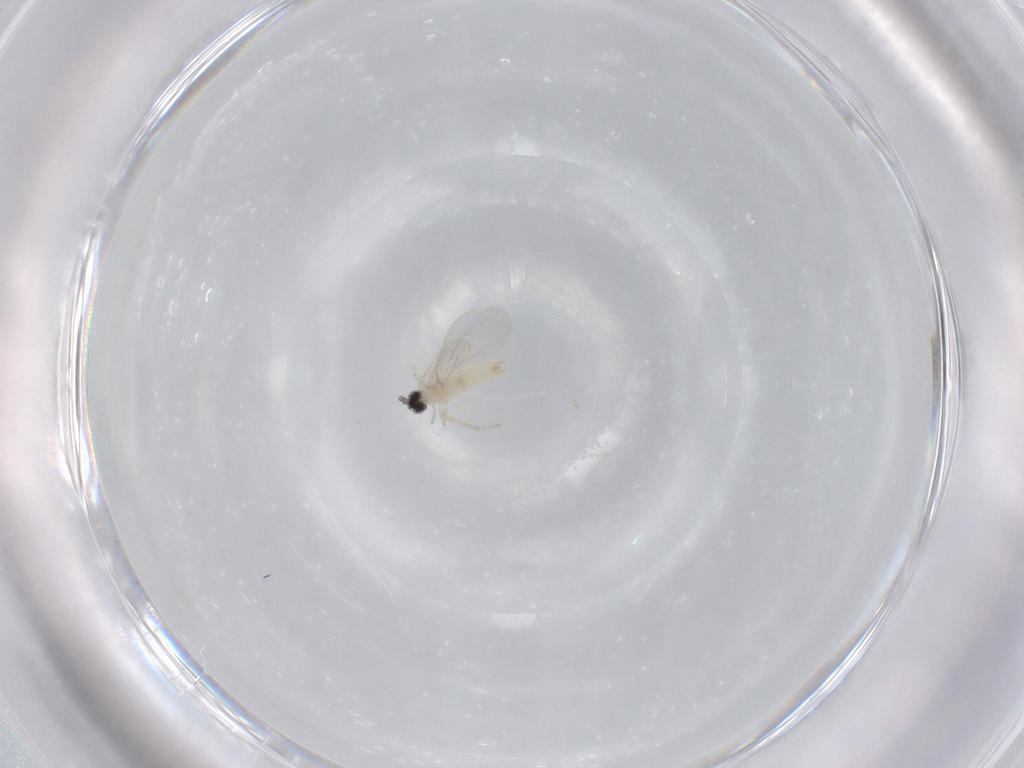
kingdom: Animalia
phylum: Arthropoda
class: Insecta
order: Diptera
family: Cecidomyiidae
